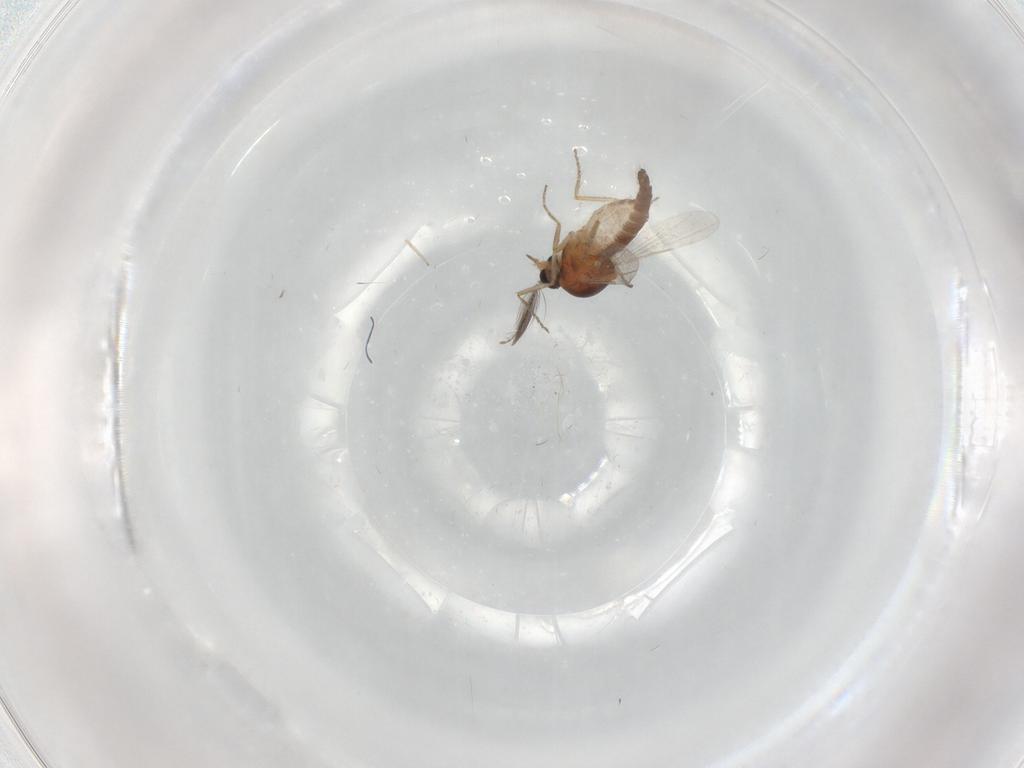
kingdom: Animalia
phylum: Arthropoda
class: Insecta
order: Diptera
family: Ceratopogonidae
